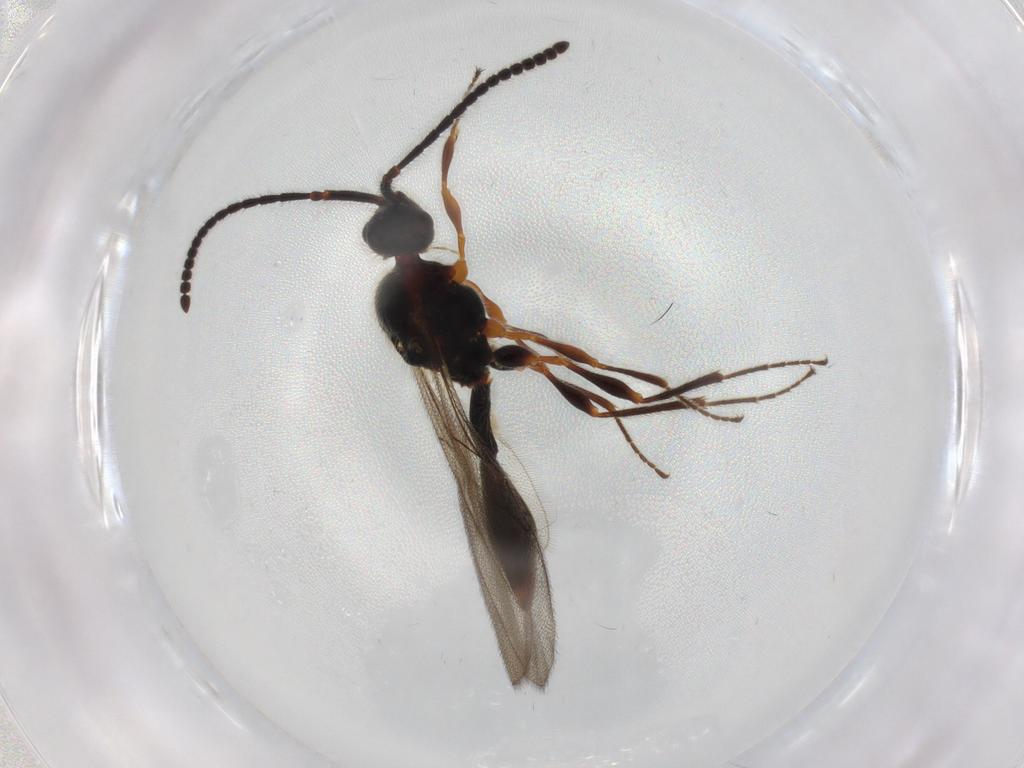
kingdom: Animalia
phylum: Arthropoda
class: Insecta
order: Hymenoptera
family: Diapriidae
